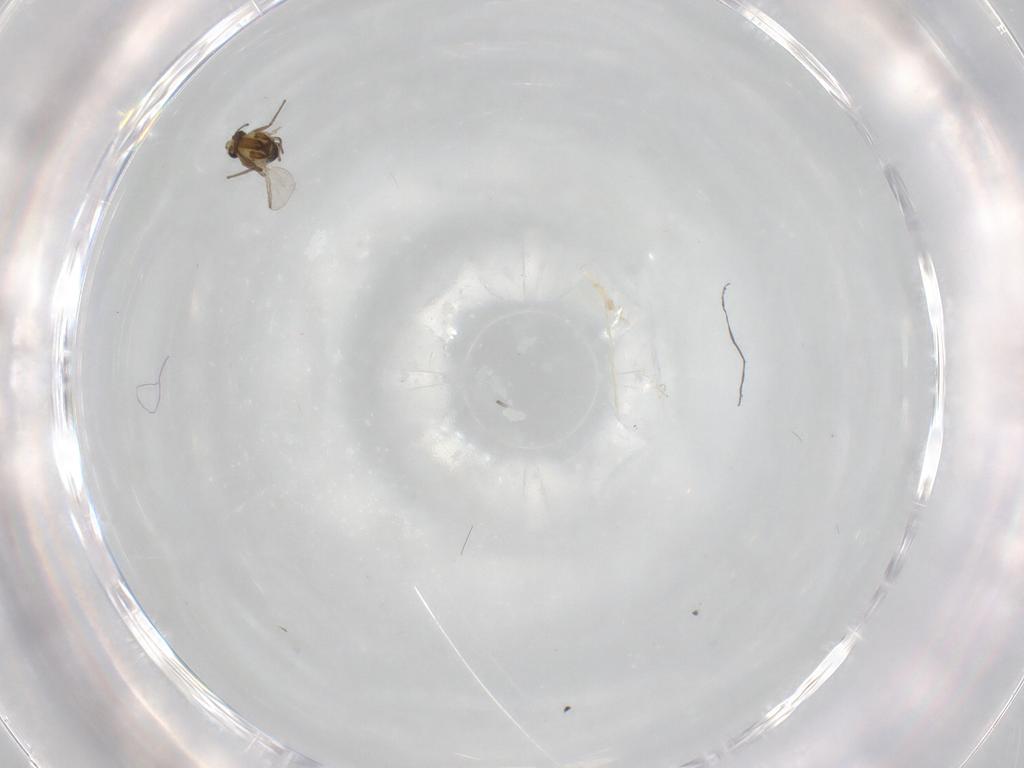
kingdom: Animalia
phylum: Arthropoda
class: Insecta
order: Diptera
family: Chironomidae
